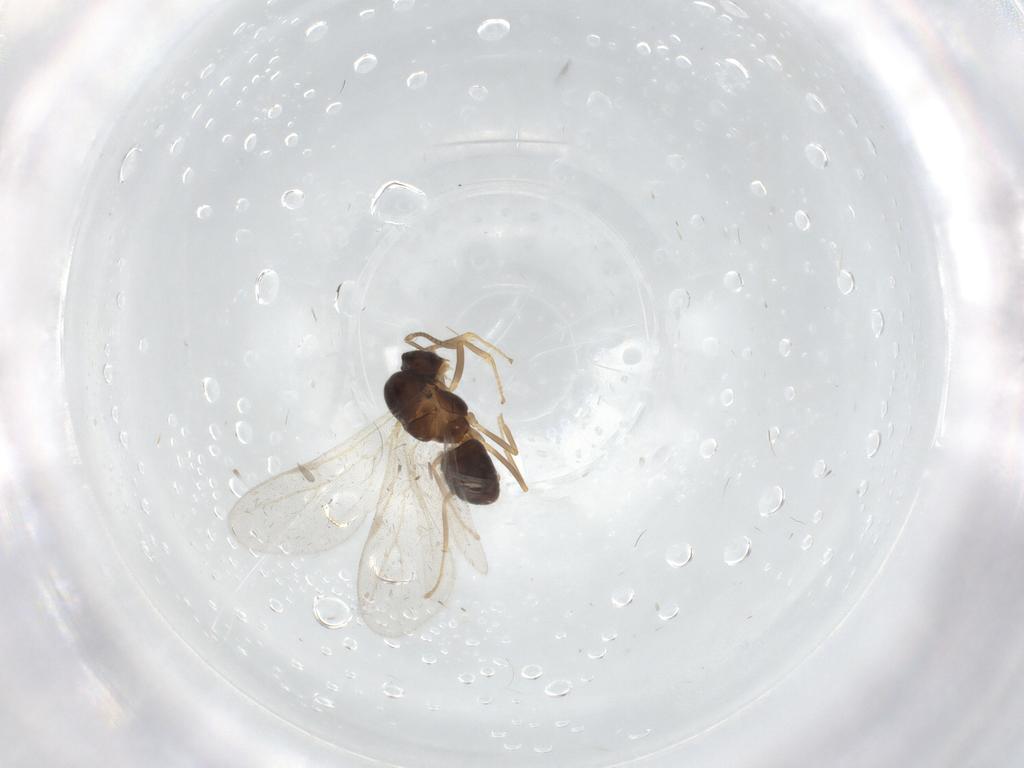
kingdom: Animalia
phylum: Arthropoda
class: Insecta
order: Hymenoptera
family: Formicidae
